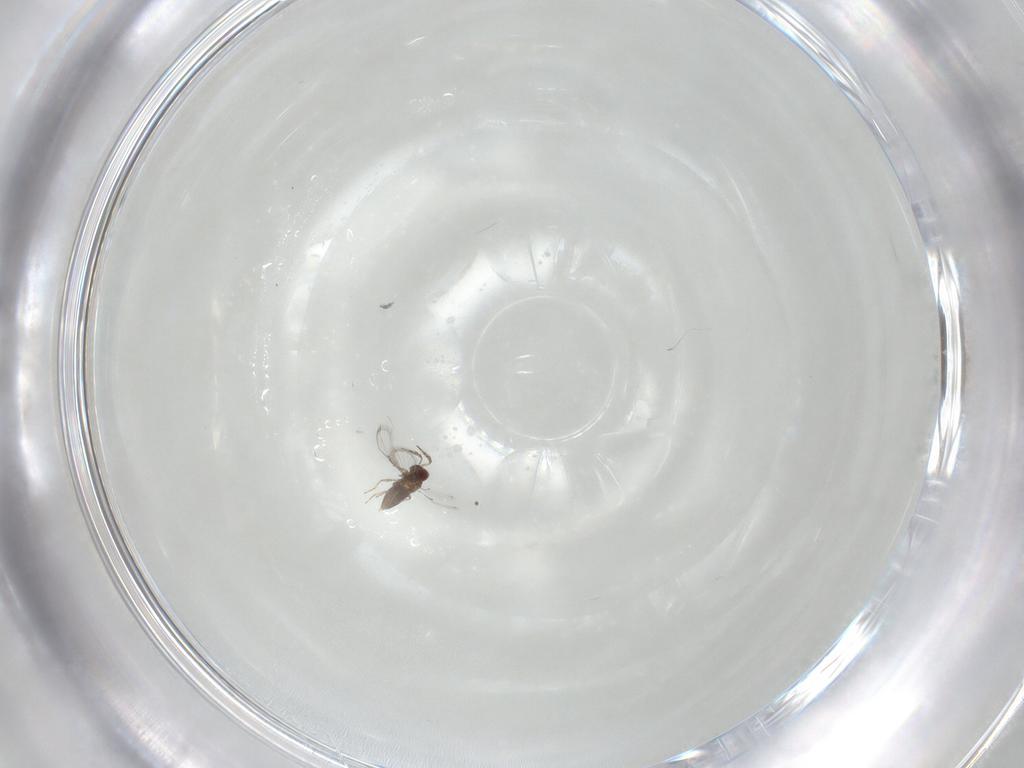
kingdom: Animalia
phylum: Arthropoda
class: Insecta
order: Hymenoptera
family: Trichogrammatidae
